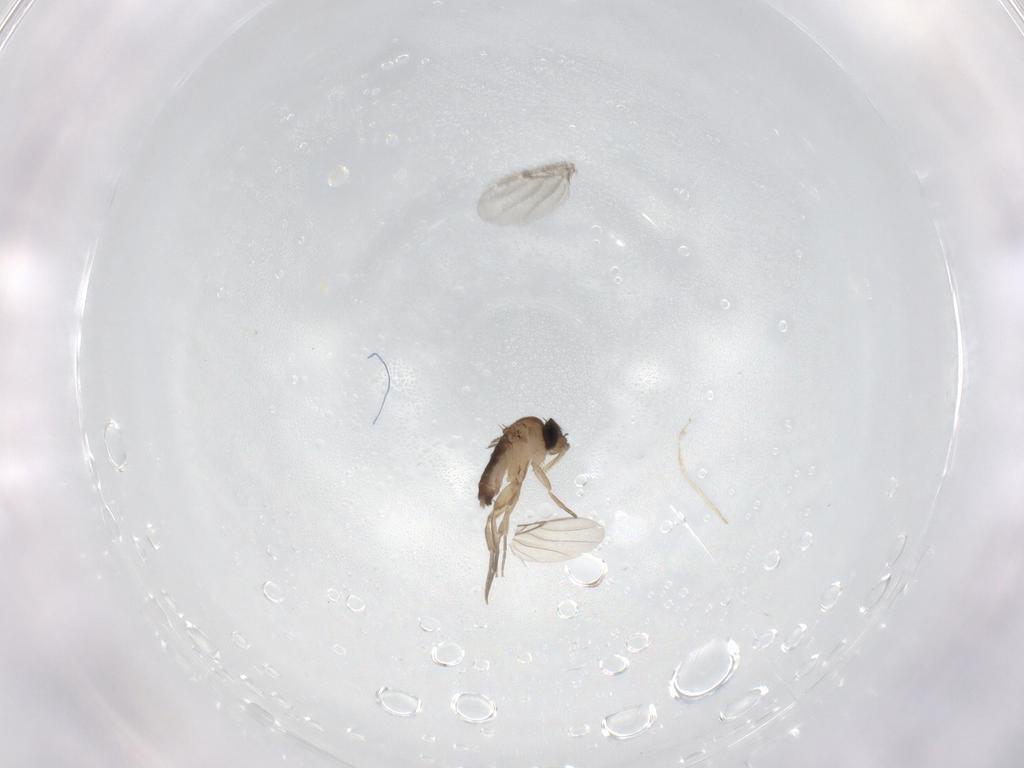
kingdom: Animalia
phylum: Arthropoda
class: Insecta
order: Diptera
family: Phoridae
